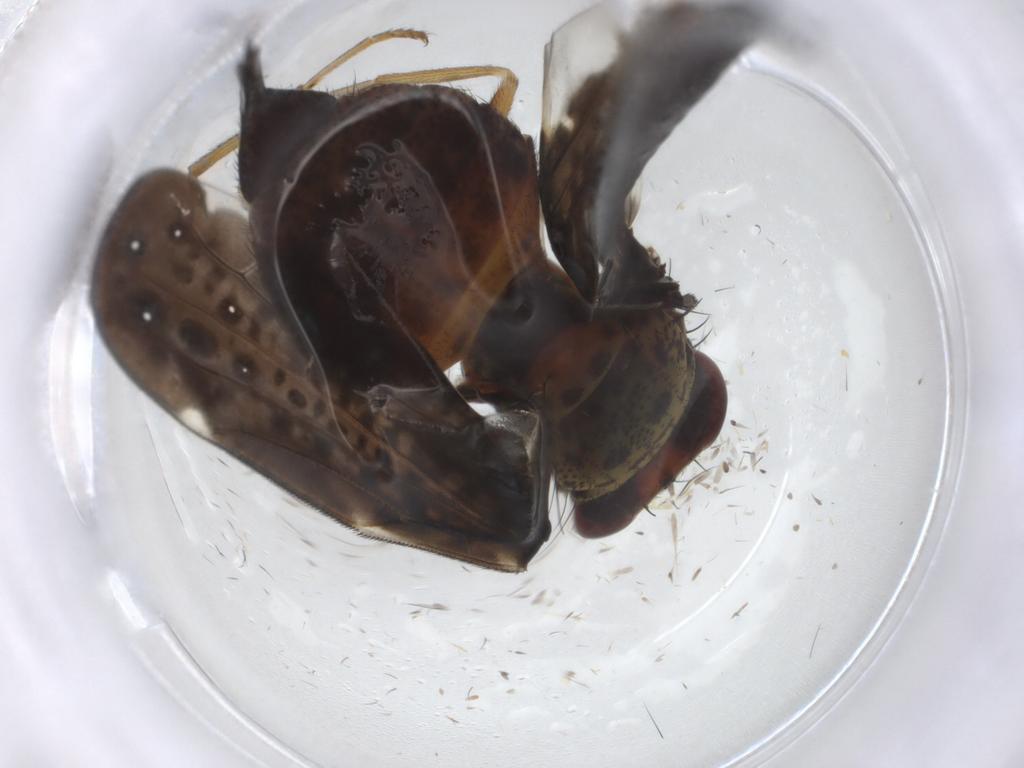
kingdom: Animalia
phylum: Arthropoda
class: Insecta
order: Diptera
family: Ulidiidae
